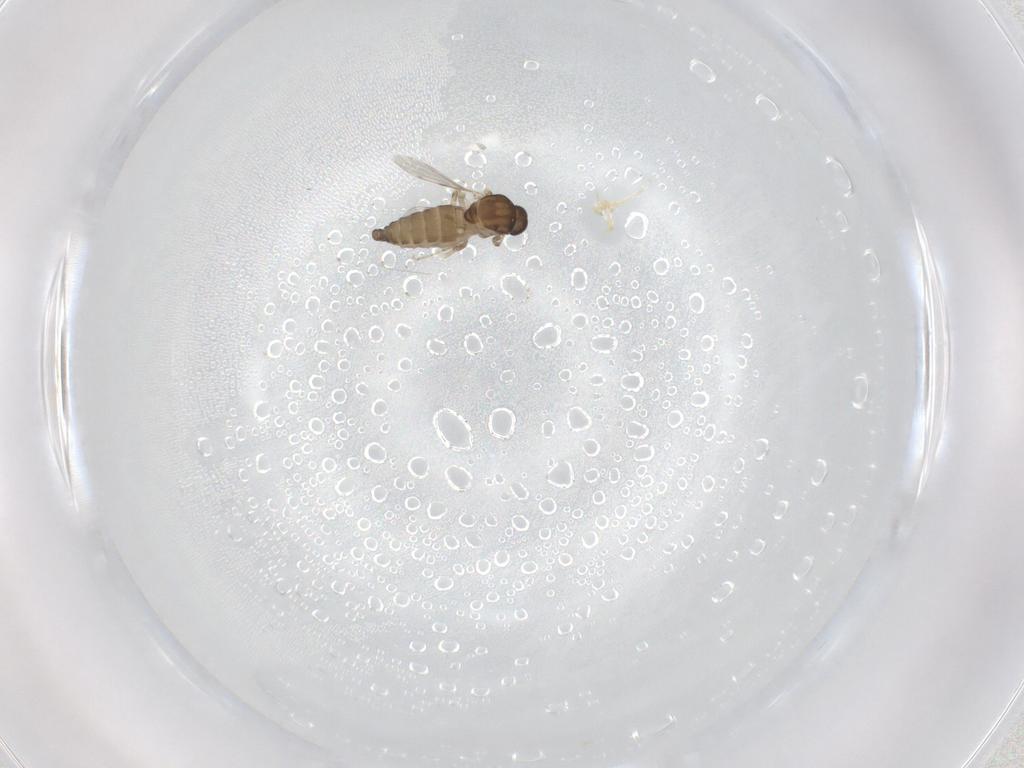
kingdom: Animalia
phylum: Arthropoda
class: Insecta
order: Diptera
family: Ceratopogonidae
